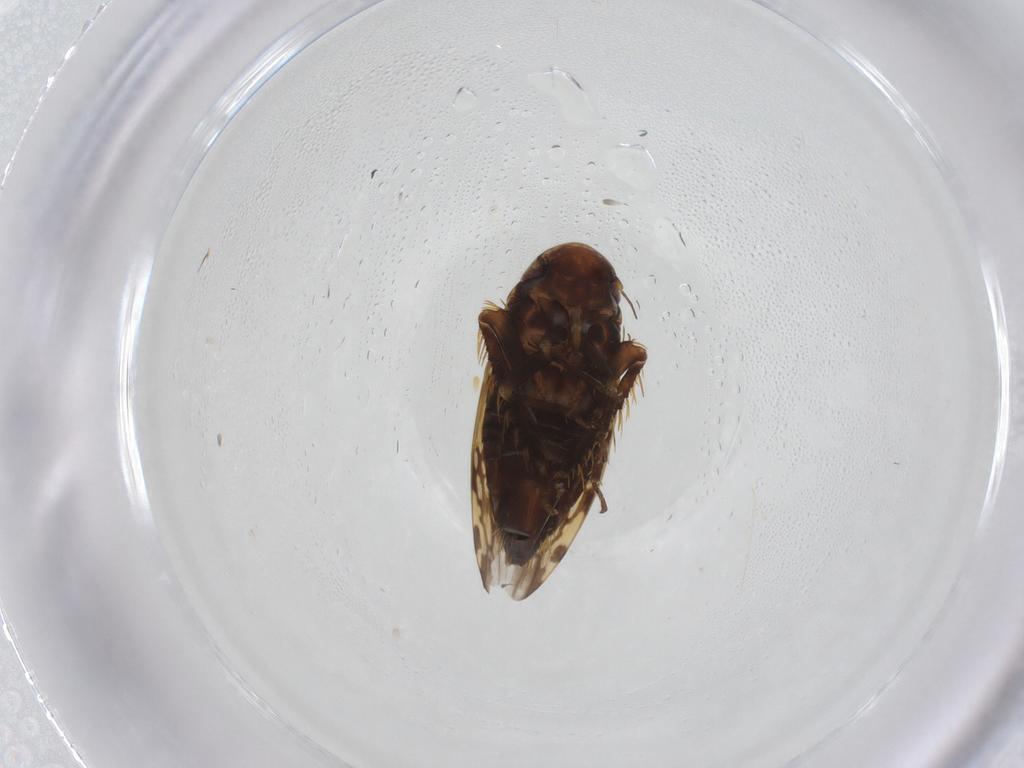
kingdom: Animalia
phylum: Arthropoda
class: Insecta
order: Hemiptera
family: Cicadellidae
